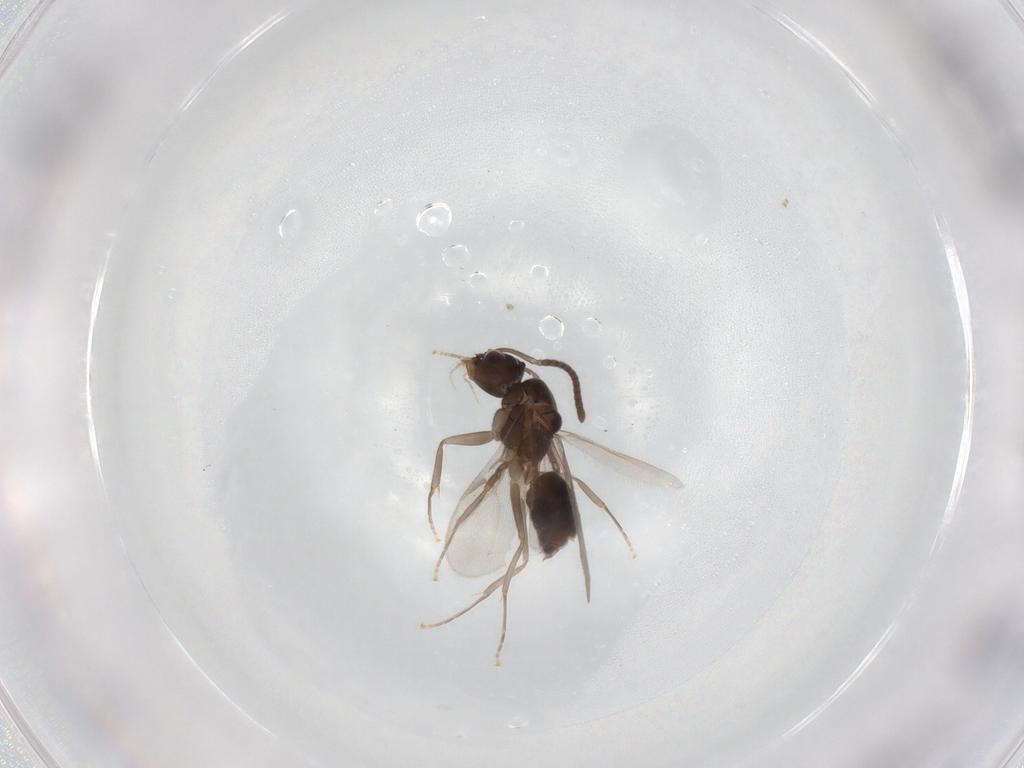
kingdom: Animalia
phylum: Arthropoda
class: Insecta
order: Hymenoptera
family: Formicidae
